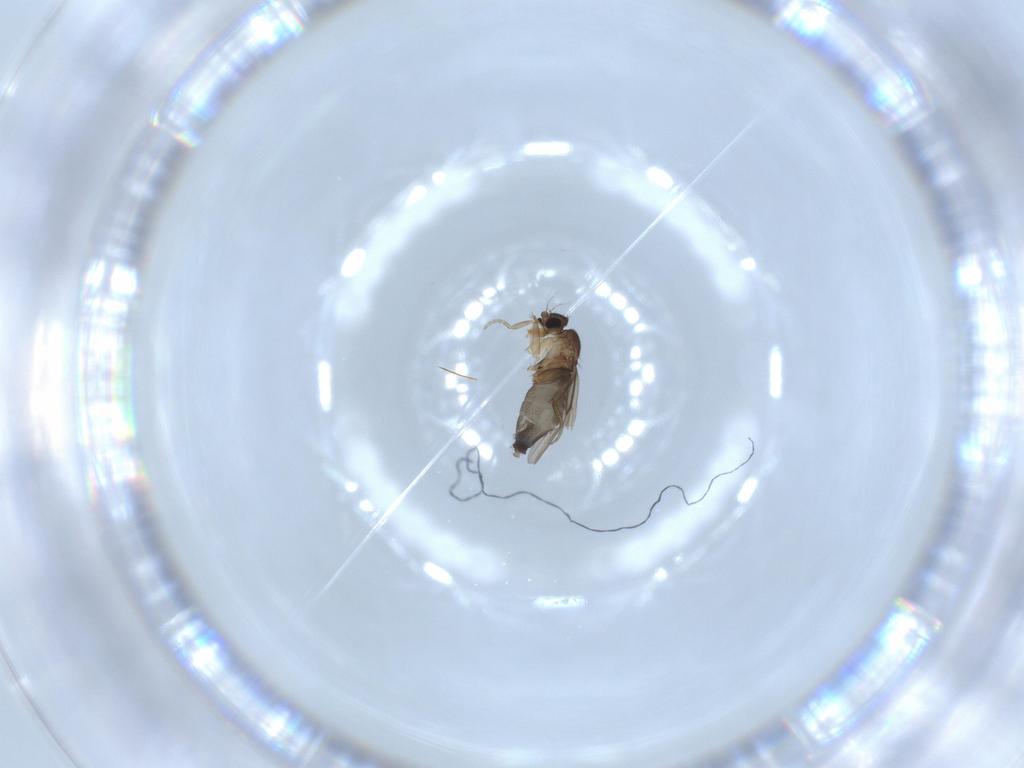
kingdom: Animalia
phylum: Arthropoda
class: Insecta
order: Diptera
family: Phoridae
